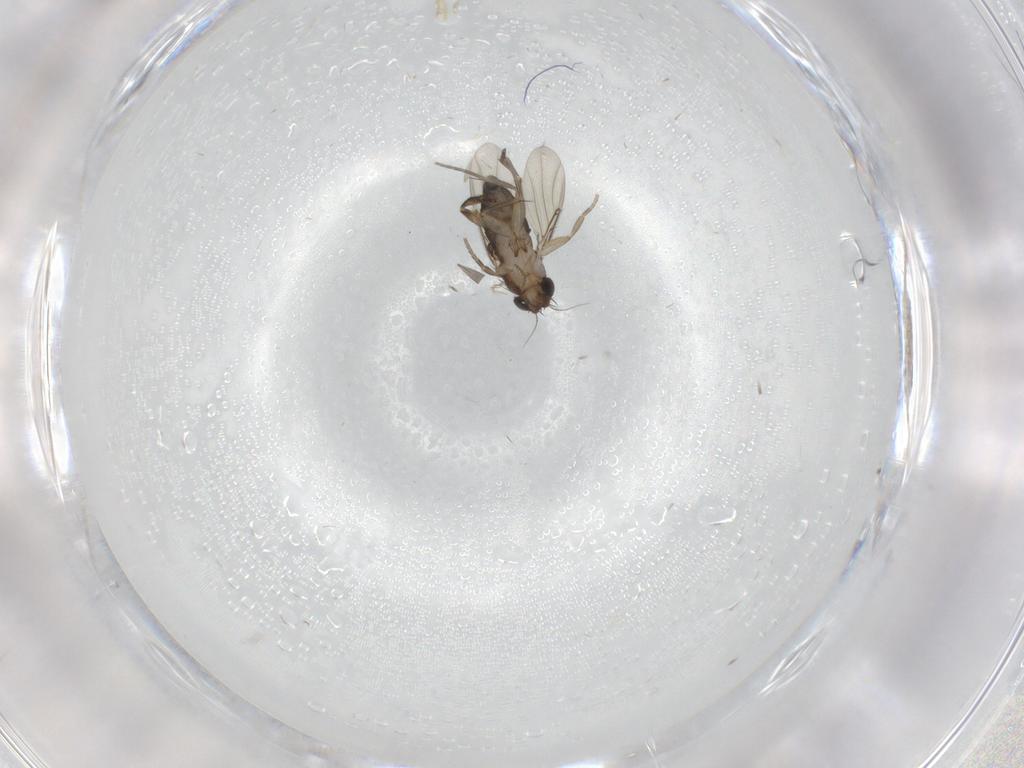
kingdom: Animalia
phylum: Arthropoda
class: Insecta
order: Diptera
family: Phoridae
